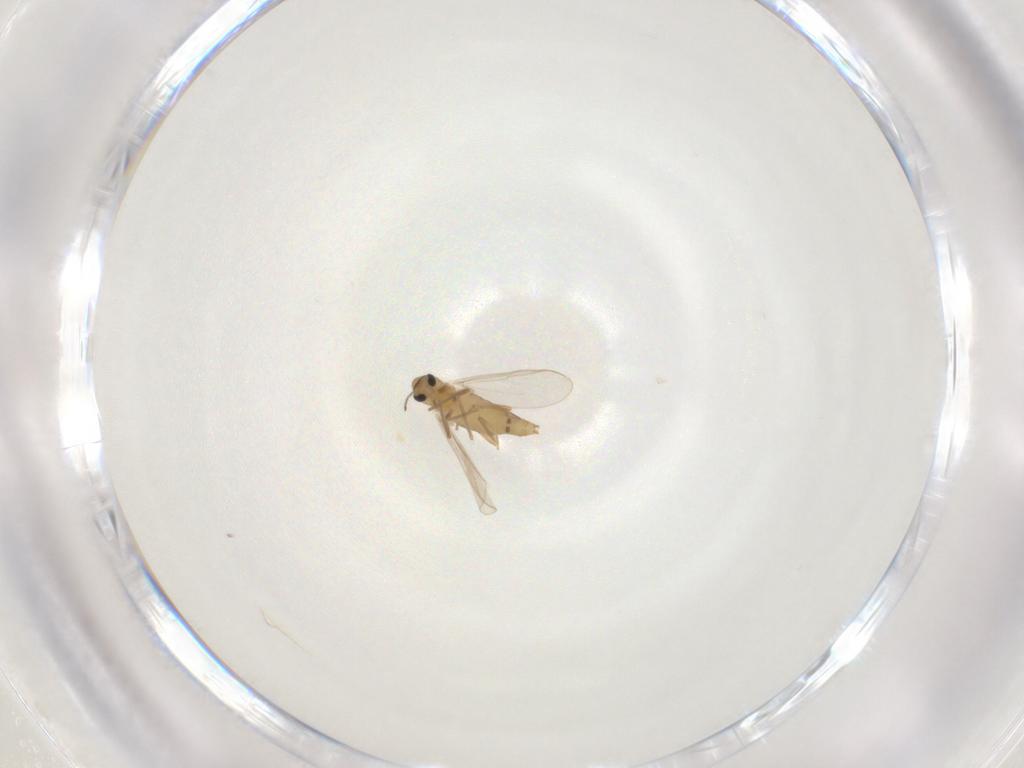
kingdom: Animalia
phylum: Arthropoda
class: Insecta
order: Diptera
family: Chironomidae
